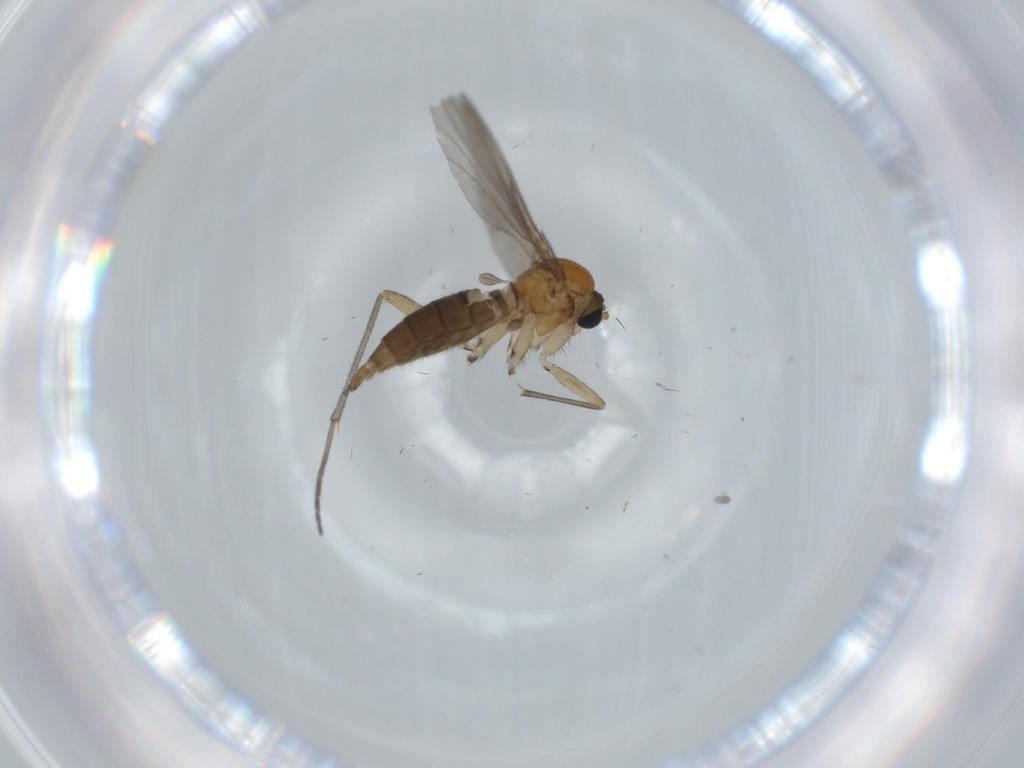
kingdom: Animalia
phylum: Arthropoda
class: Insecta
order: Diptera
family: Sciaridae
